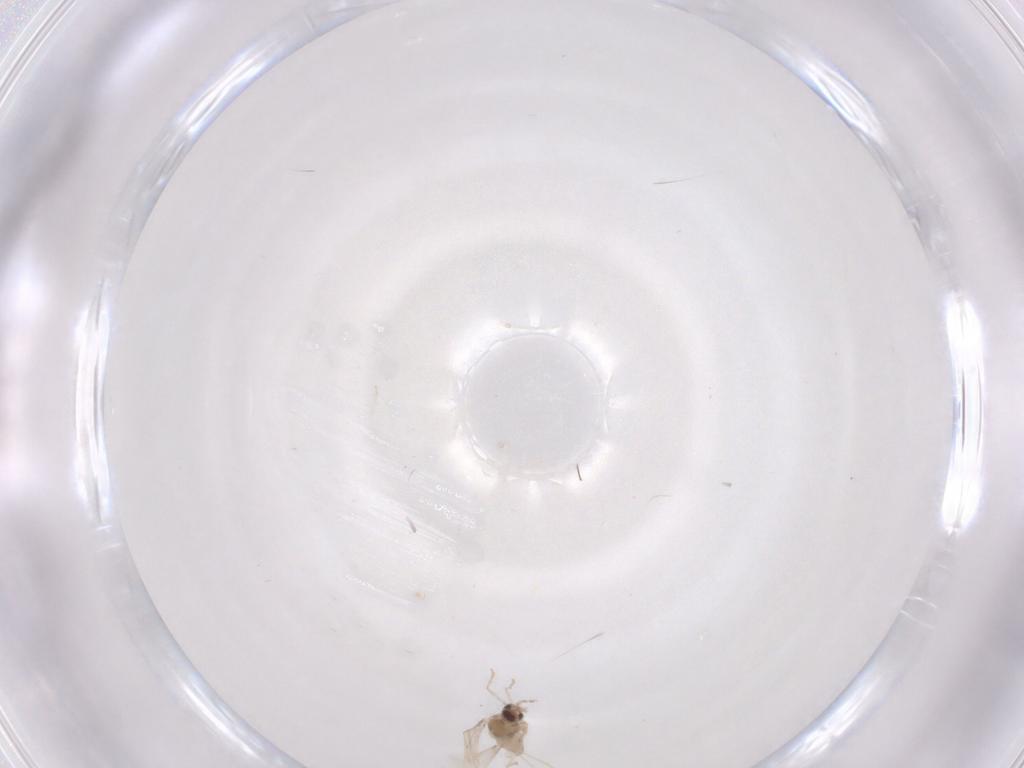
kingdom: Animalia
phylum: Arthropoda
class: Insecta
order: Diptera
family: Cecidomyiidae
